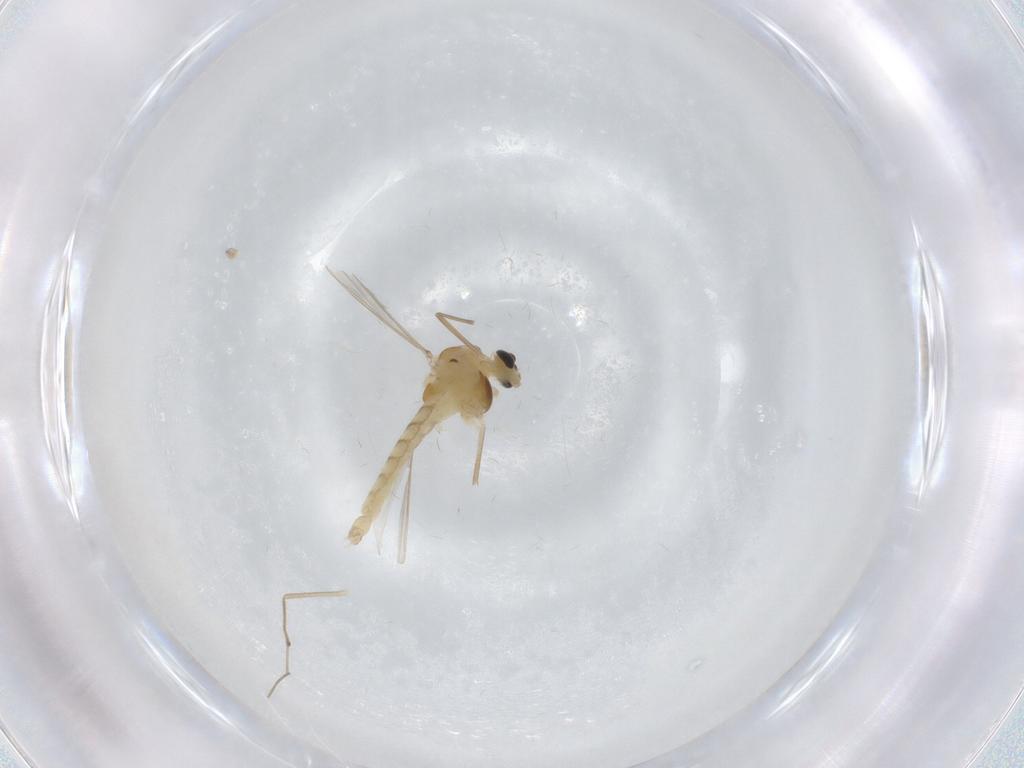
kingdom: Animalia
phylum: Arthropoda
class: Insecta
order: Diptera
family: Chironomidae
